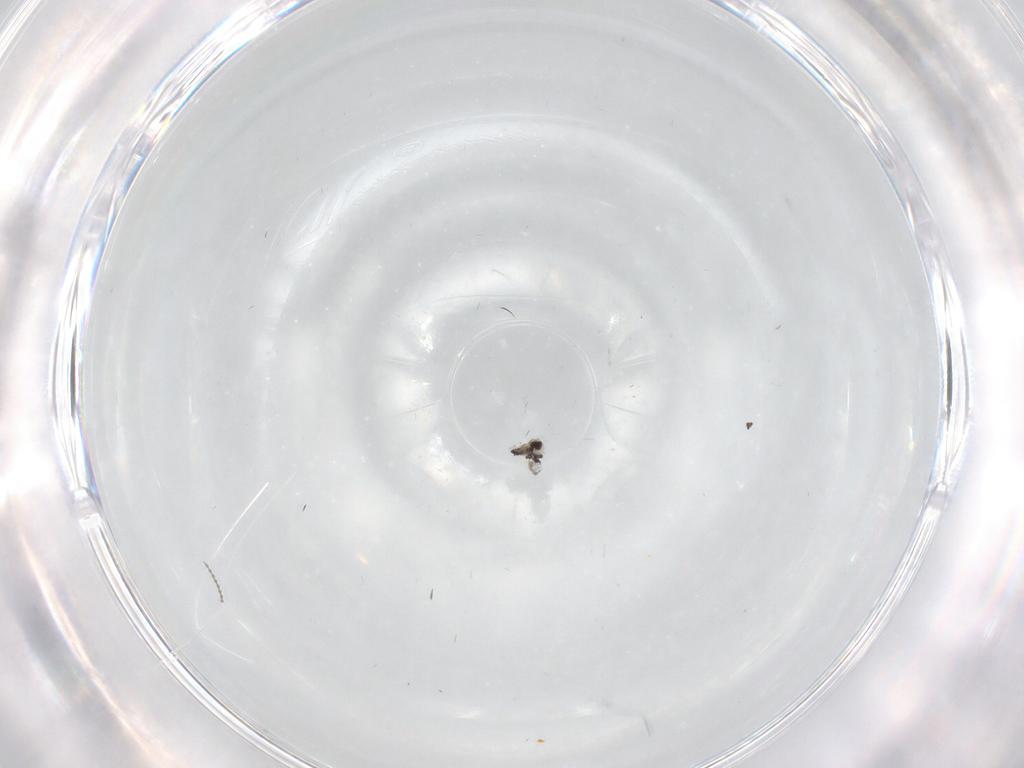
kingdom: Animalia
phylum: Arthropoda
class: Insecta
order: Diptera
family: Cecidomyiidae
